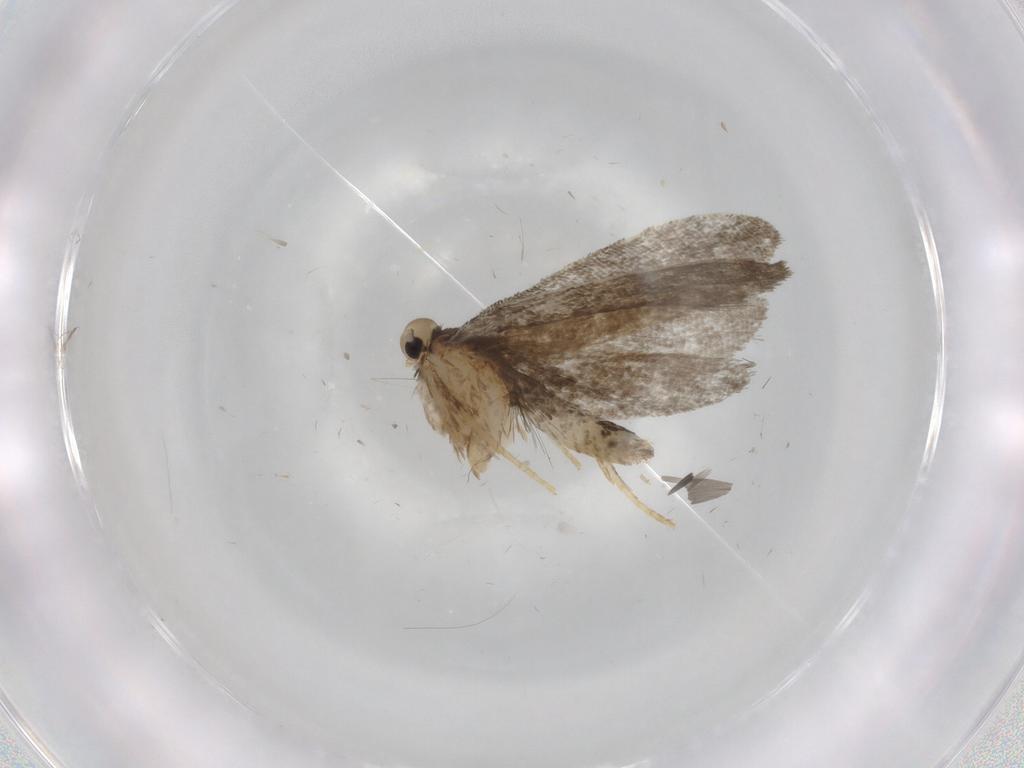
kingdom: Animalia
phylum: Arthropoda
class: Insecta
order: Lepidoptera
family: Psychidae
